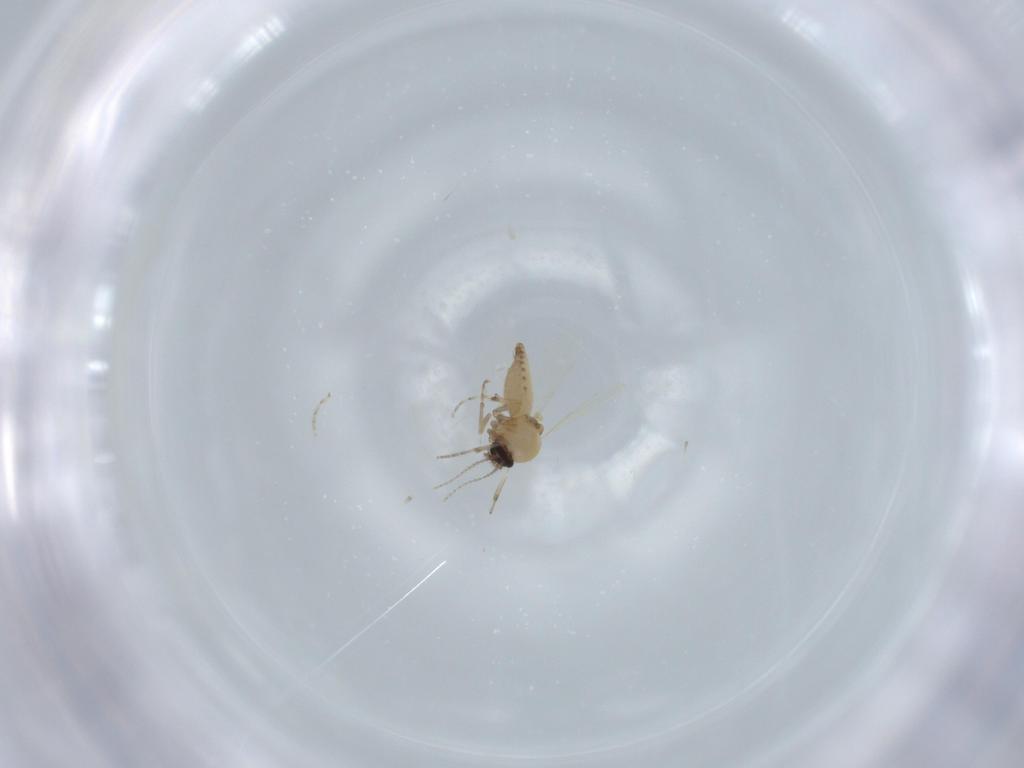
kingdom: Animalia
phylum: Arthropoda
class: Insecta
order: Diptera
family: Ceratopogonidae
